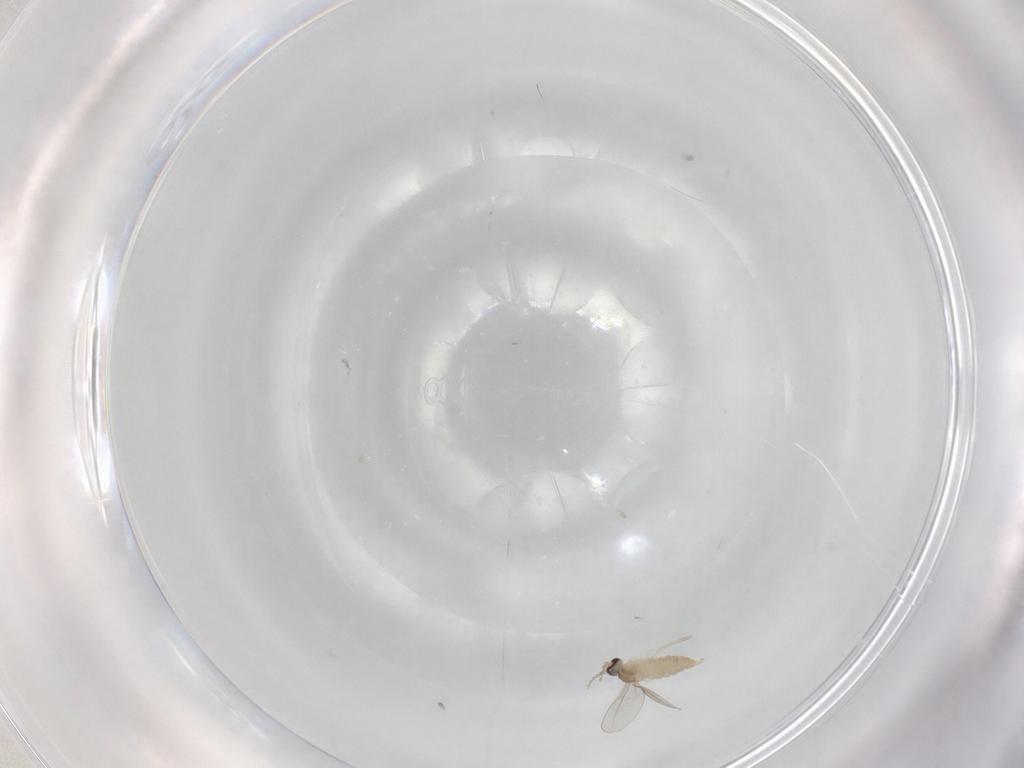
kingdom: Animalia
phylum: Arthropoda
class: Insecta
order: Diptera
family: Cecidomyiidae
